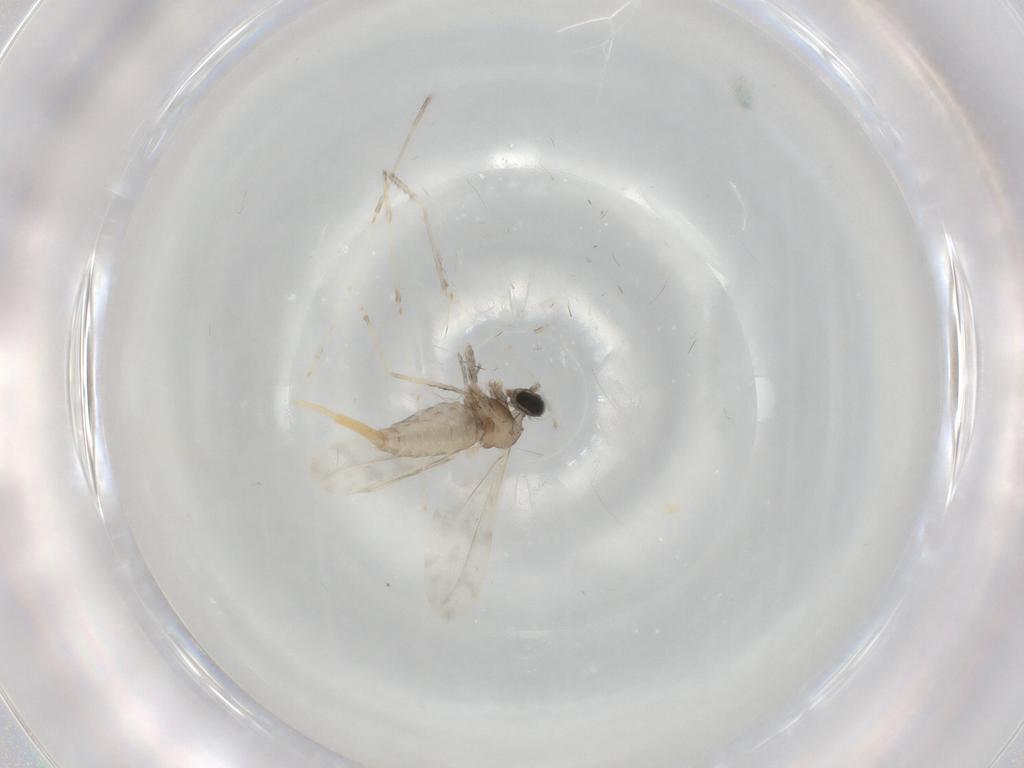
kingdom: Animalia
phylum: Arthropoda
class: Insecta
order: Diptera
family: Cecidomyiidae
